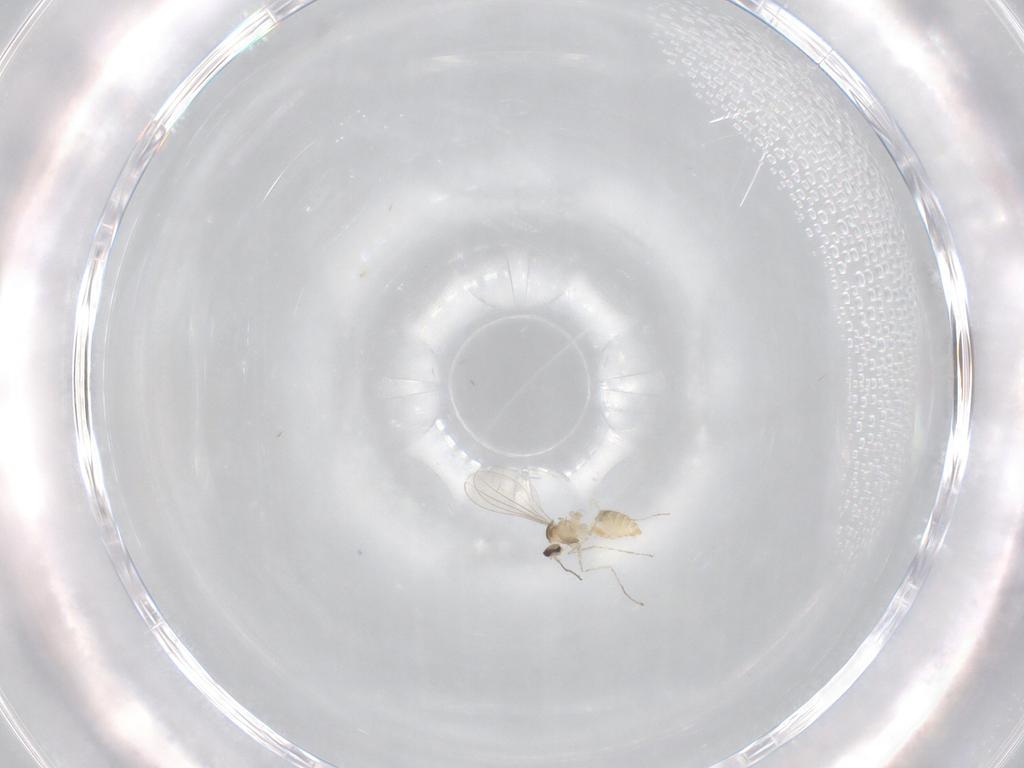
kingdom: Animalia
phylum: Arthropoda
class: Insecta
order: Diptera
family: Cecidomyiidae
